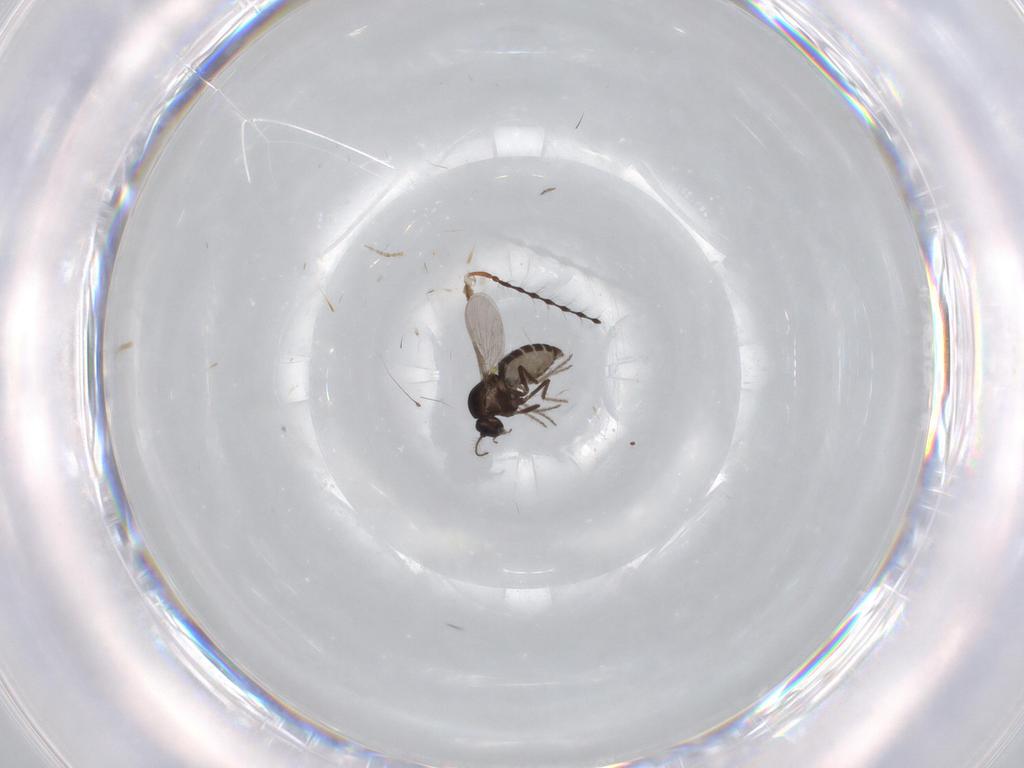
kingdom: Animalia
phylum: Arthropoda
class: Insecta
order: Diptera
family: Ceratopogonidae
